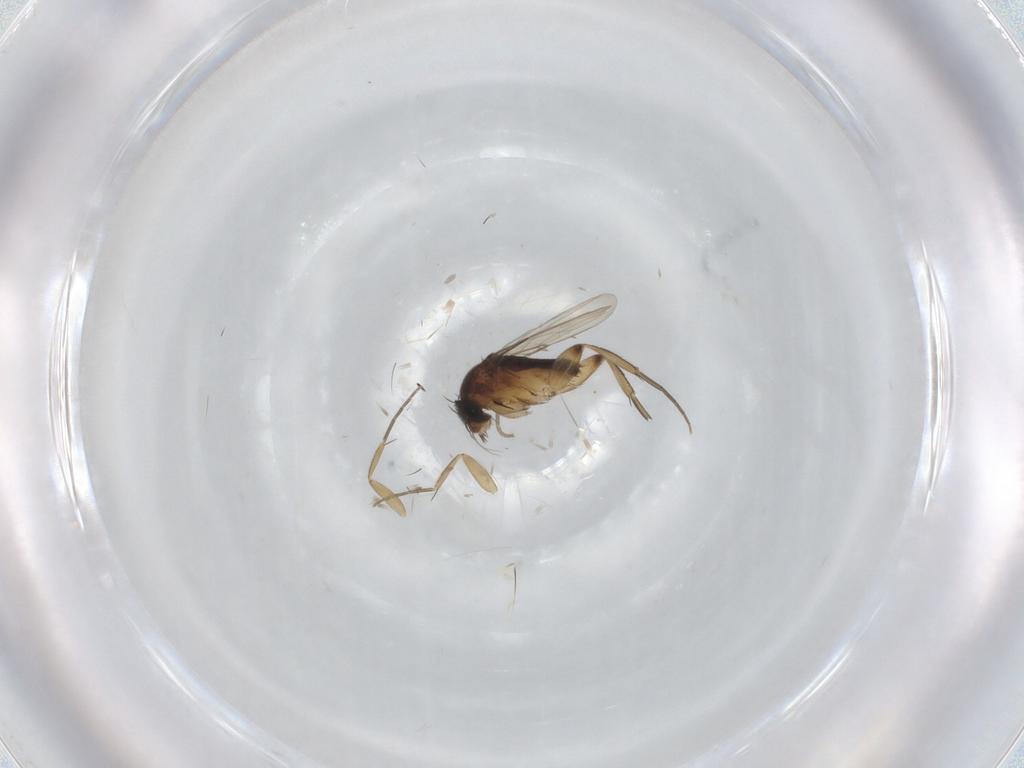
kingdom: Animalia
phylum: Arthropoda
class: Insecta
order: Diptera
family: Phoridae
